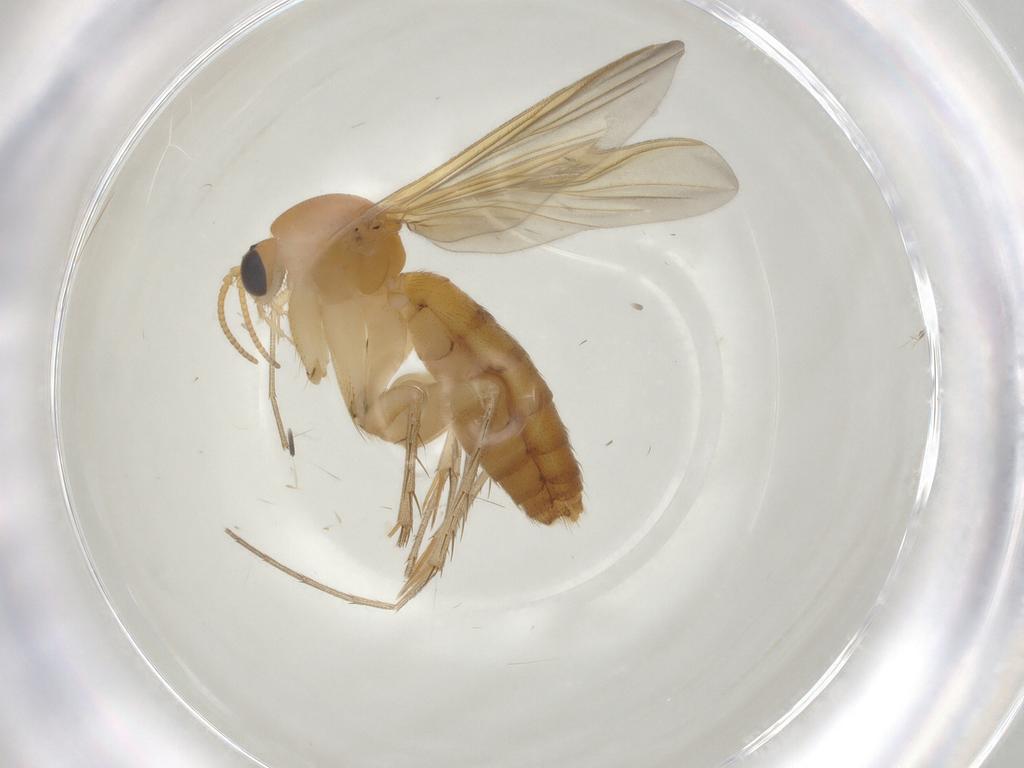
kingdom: Animalia
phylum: Arthropoda
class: Insecta
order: Diptera
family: Mycetophilidae
